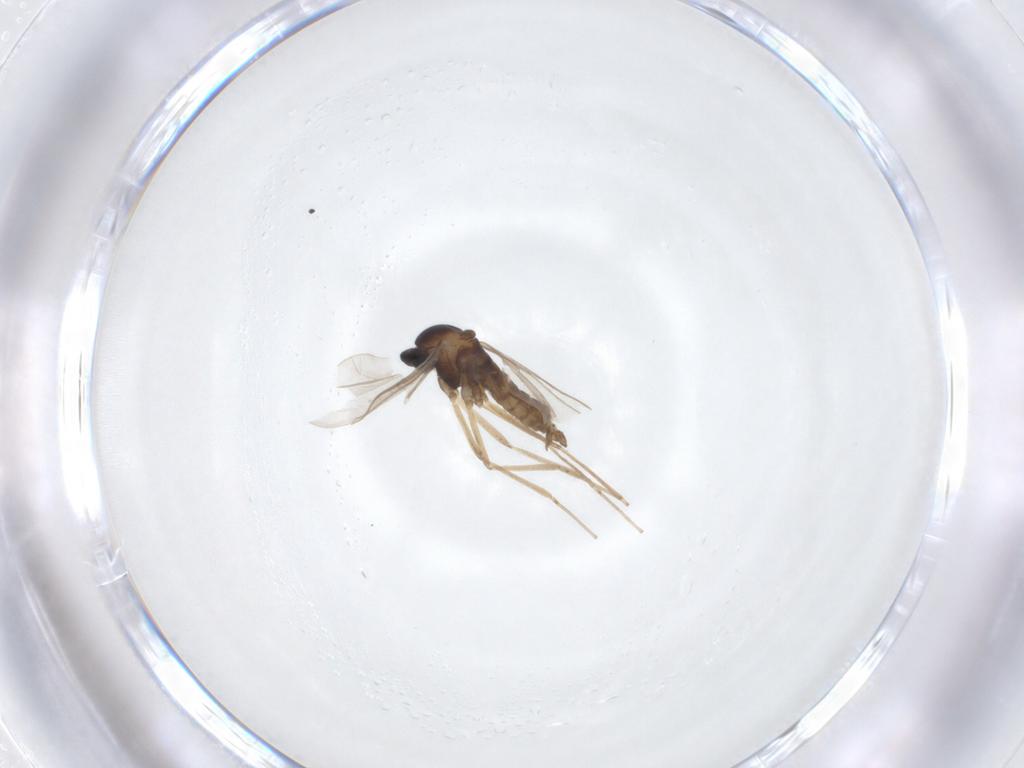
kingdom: Animalia
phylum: Arthropoda
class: Insecta
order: Diptera
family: Cecidomyiidae
